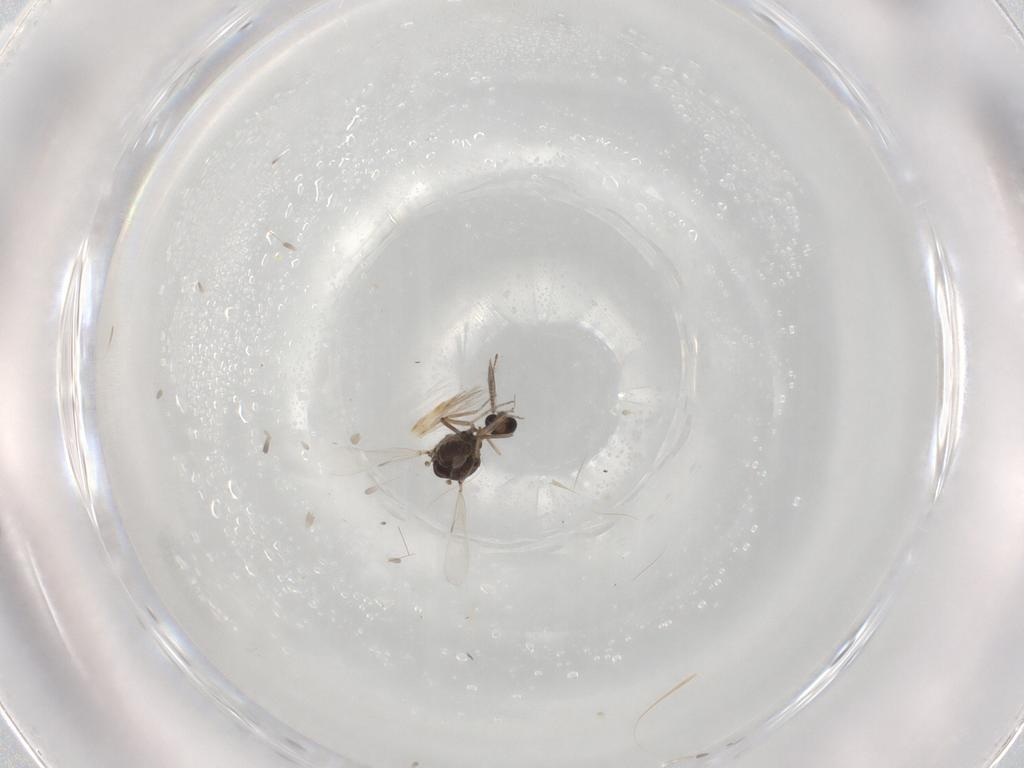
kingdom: Animalia
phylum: Arthropoda
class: Insecta
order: Diptera
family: Ceratopogonidae
